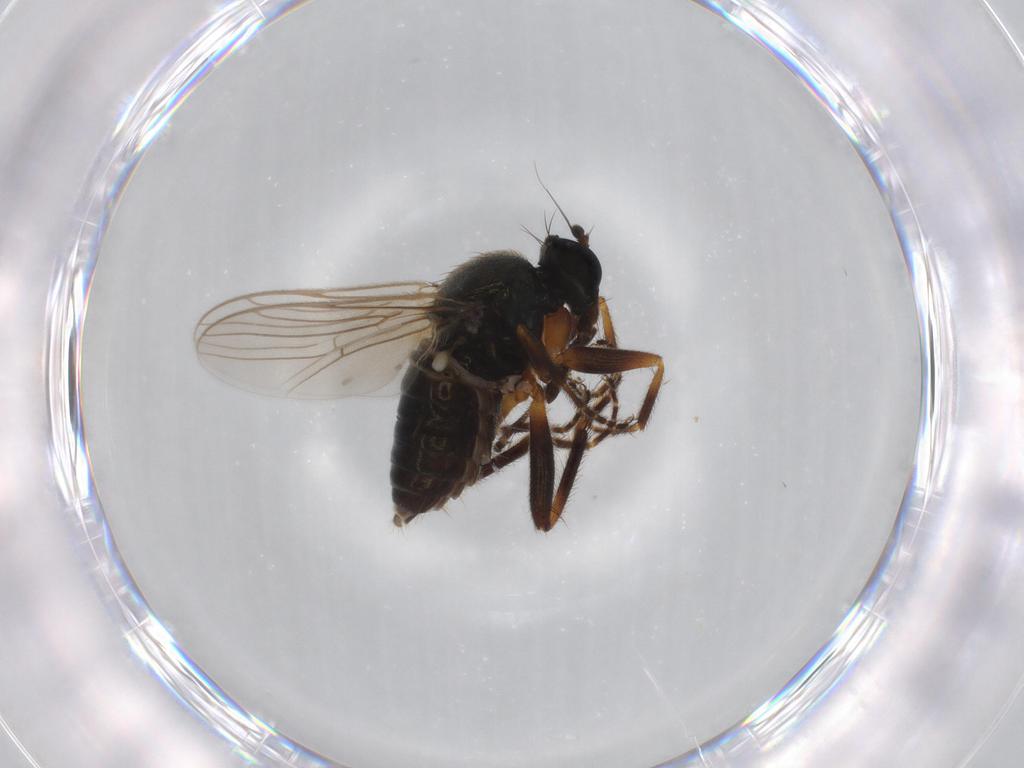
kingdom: Animalia
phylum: Arthropoda
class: Insecta
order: Diptera
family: Hybotidae
